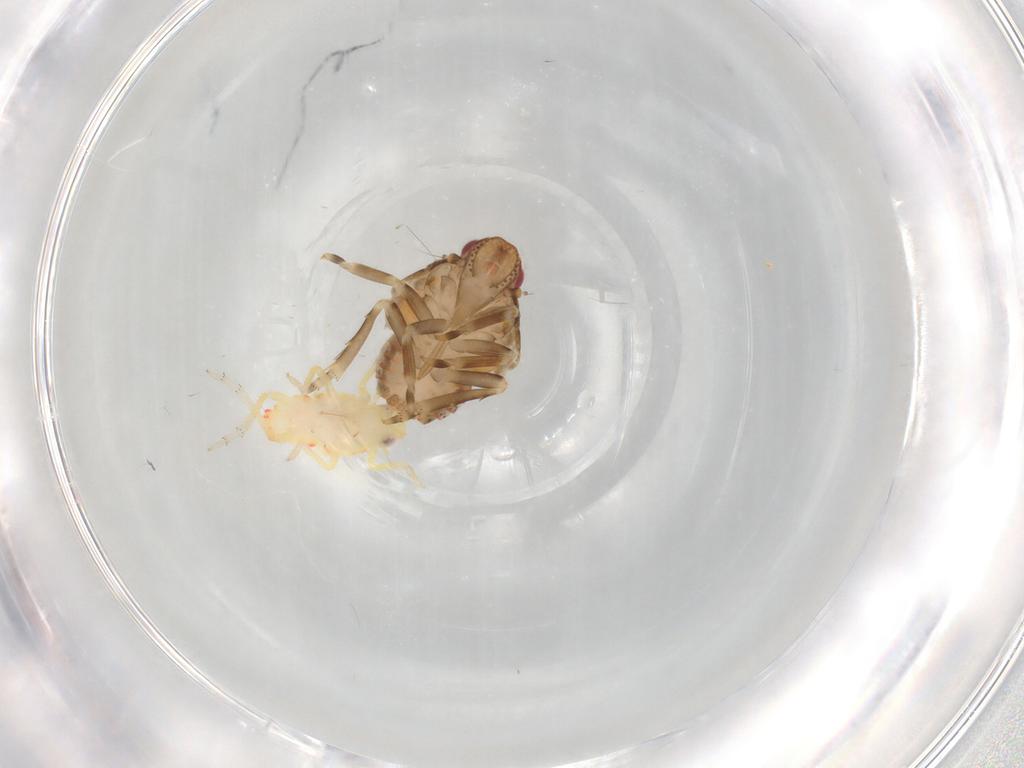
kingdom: Animalia
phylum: Arthropoda
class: Insecta
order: Hemiptera
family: Flatidae
